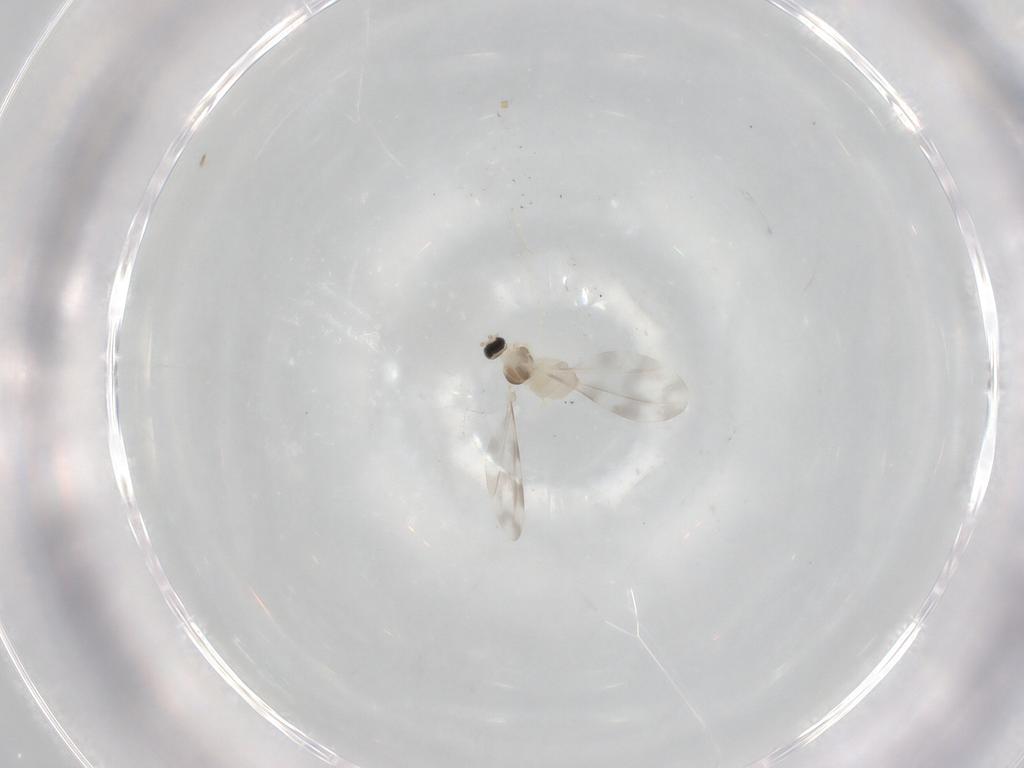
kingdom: Animalia
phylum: Arthropoda
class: Insecta
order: Diptera
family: Cecidomyiidae
